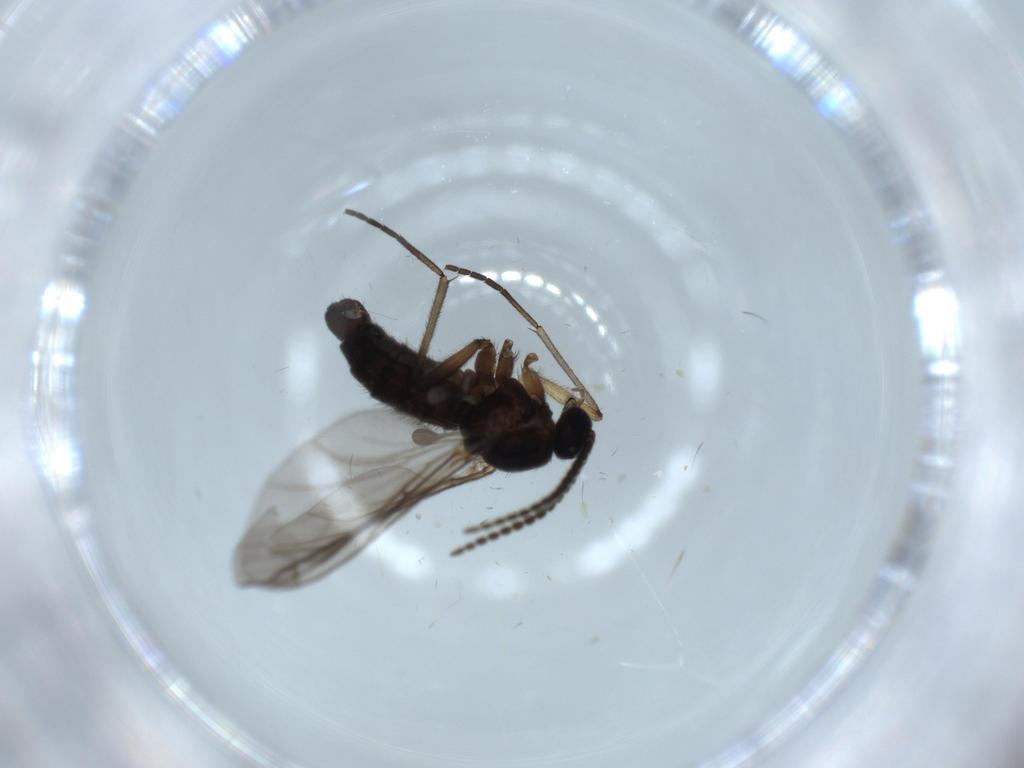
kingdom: Animalia
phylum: Arthropoda
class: Insecta
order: Diptera
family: Sciaridae
